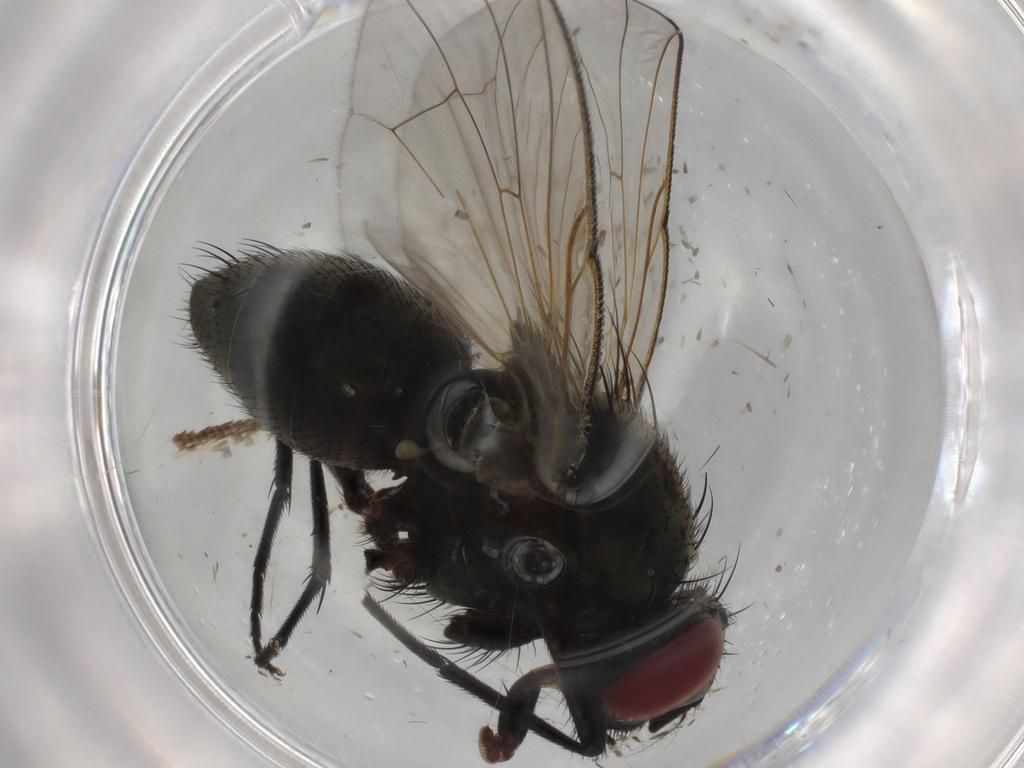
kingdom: Animalia
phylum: Arthropoda
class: Insecta
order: Diptera
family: Muscidae
